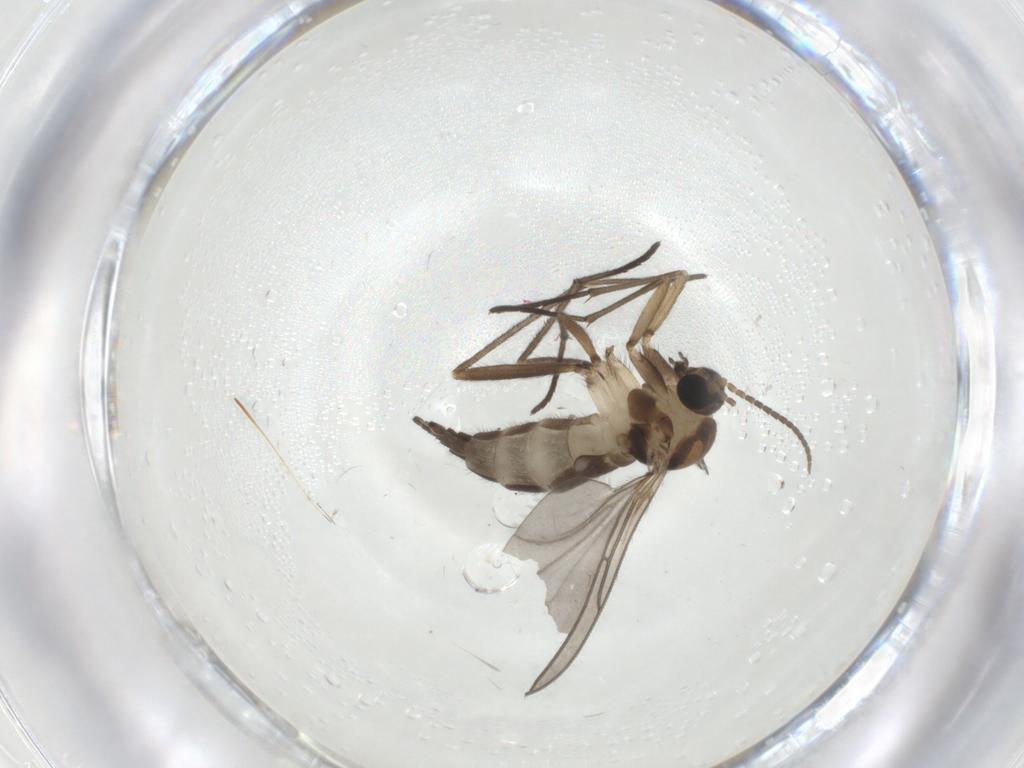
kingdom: Animalia
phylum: Arthropoda
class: Insecta
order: Diptera
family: Sciaridae
